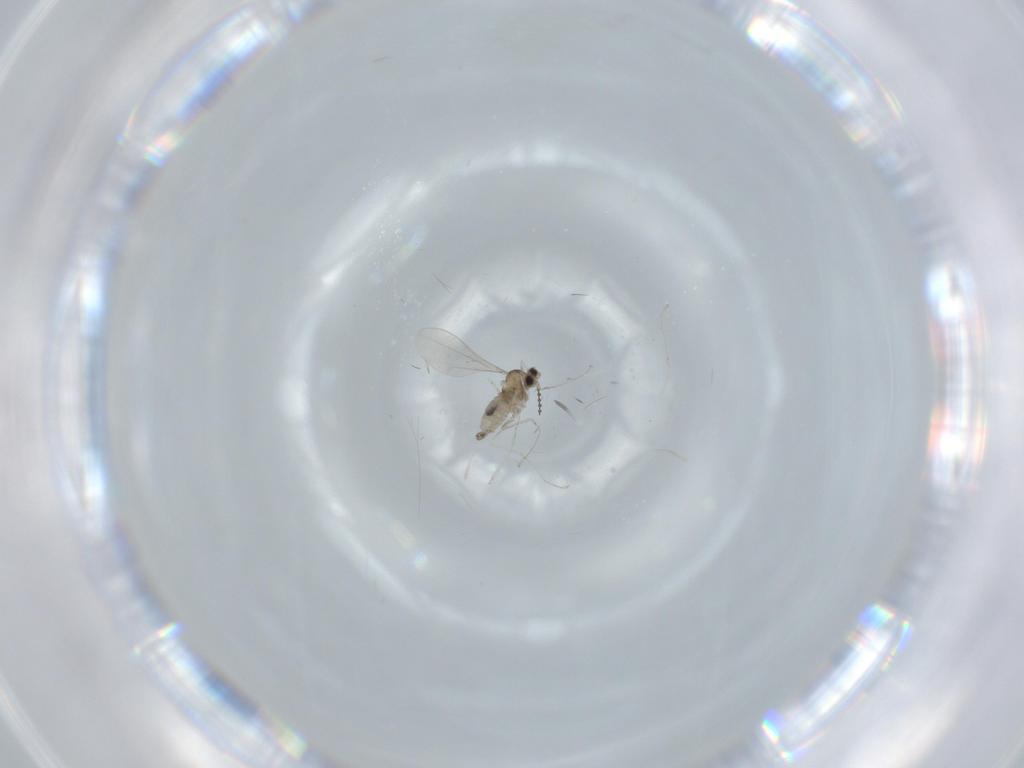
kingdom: Animalia
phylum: Arthropoda
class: Insecta
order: Diptera
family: Cecidomyiidae
